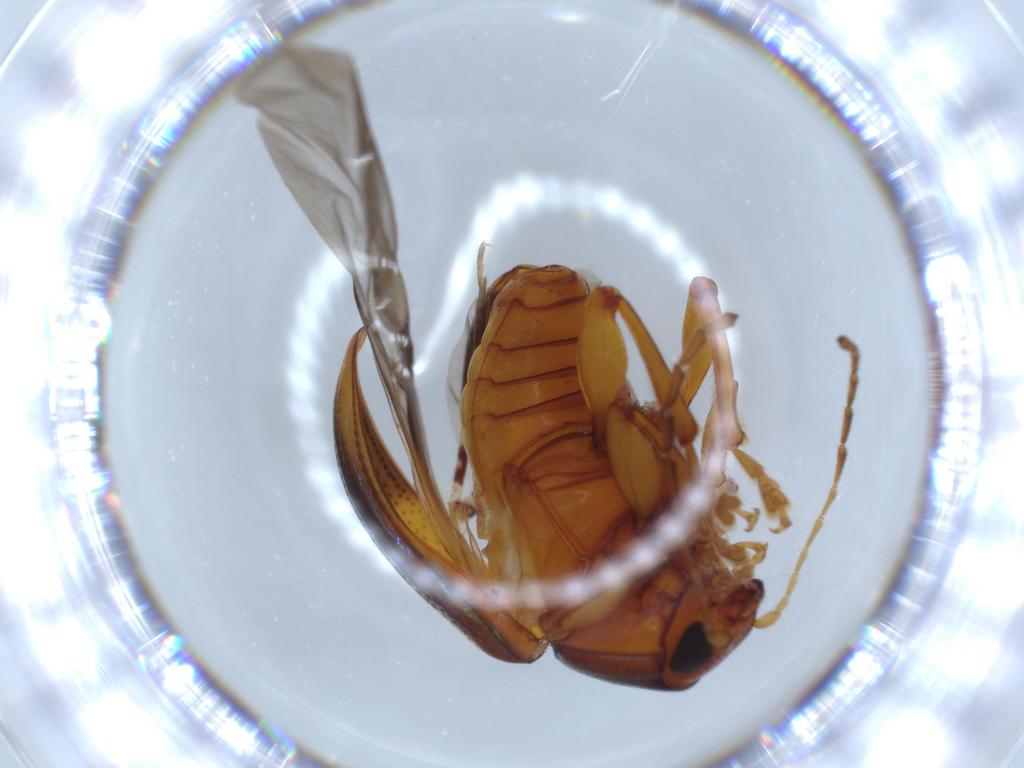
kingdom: Animalia
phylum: Arthropoda
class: Insecta
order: Coleoptera
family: Chrysomelidae
